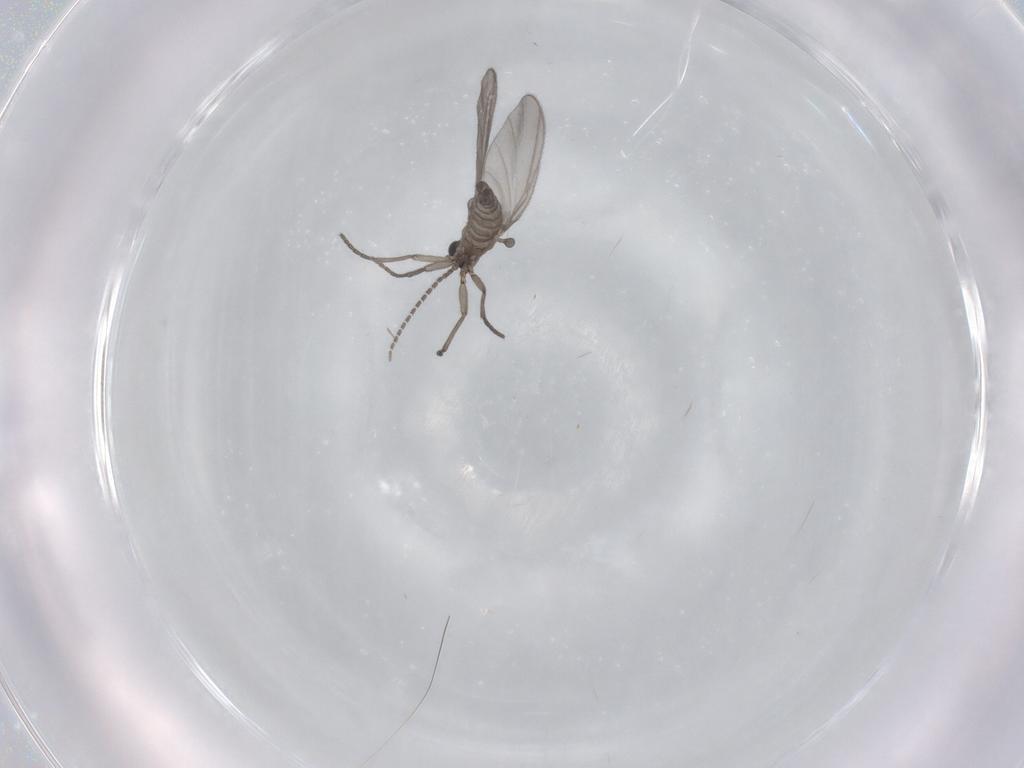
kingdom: Animalia
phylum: Arthropoda
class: Insecta
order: Diptera
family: Sciaridae
